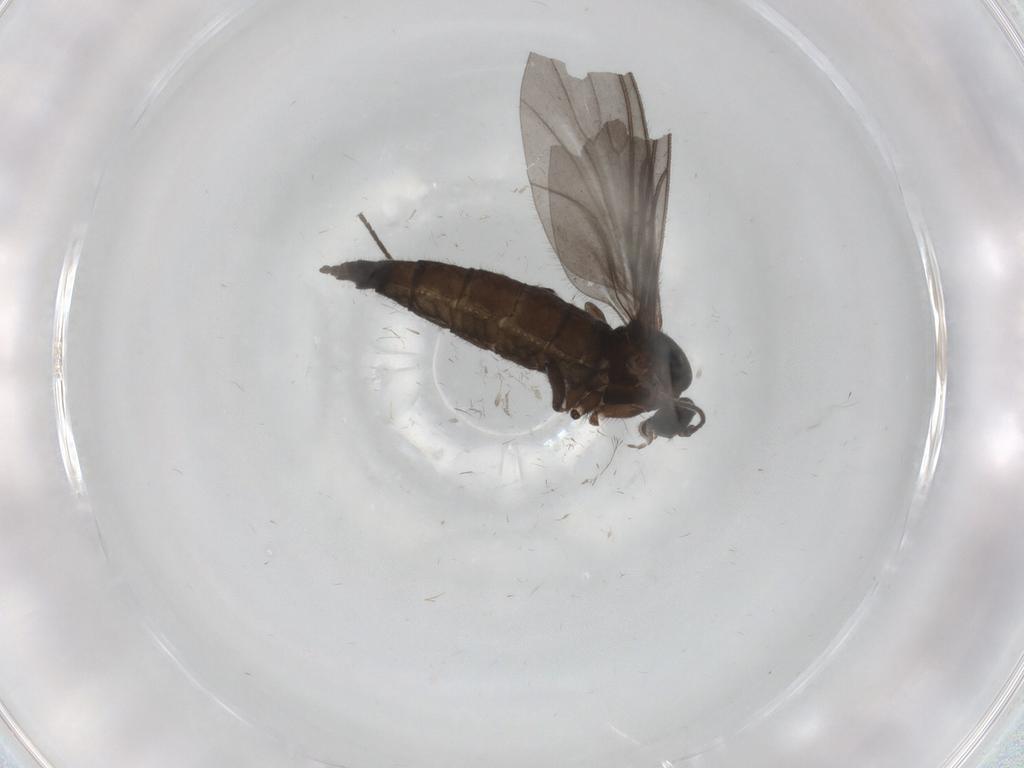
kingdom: Animalia
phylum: Arthropoda
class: Insecta
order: Diptera
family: Sciaridae
